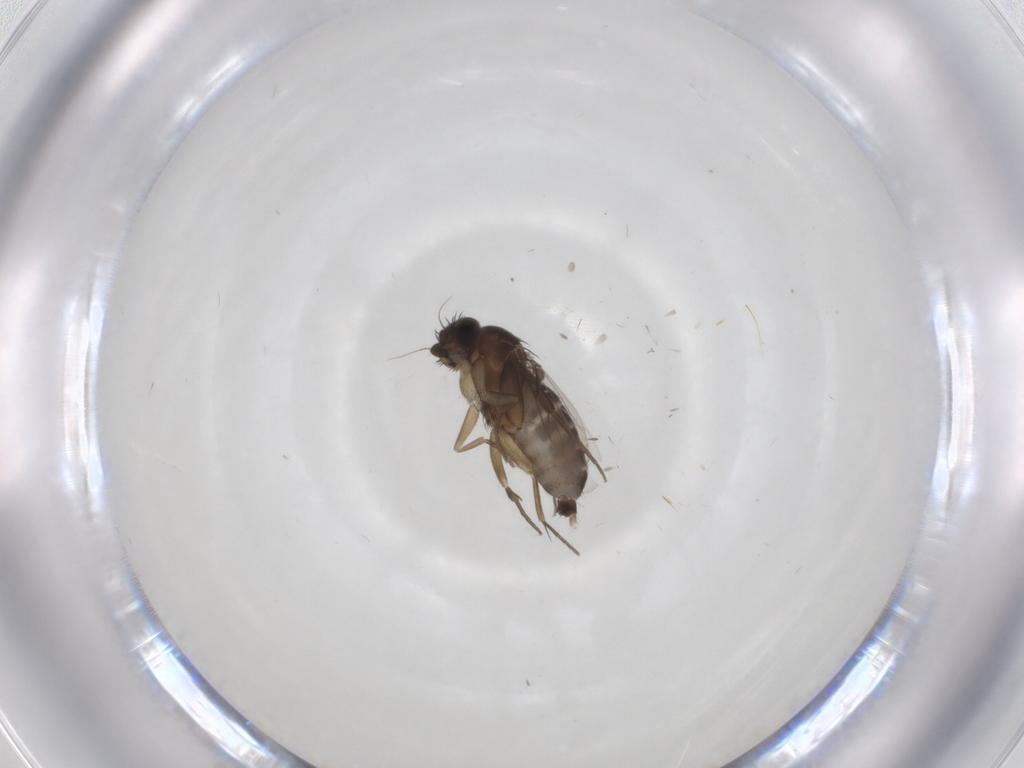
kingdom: Animalia
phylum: Arthropoda
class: Insecta
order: Diptera
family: Phoridae
